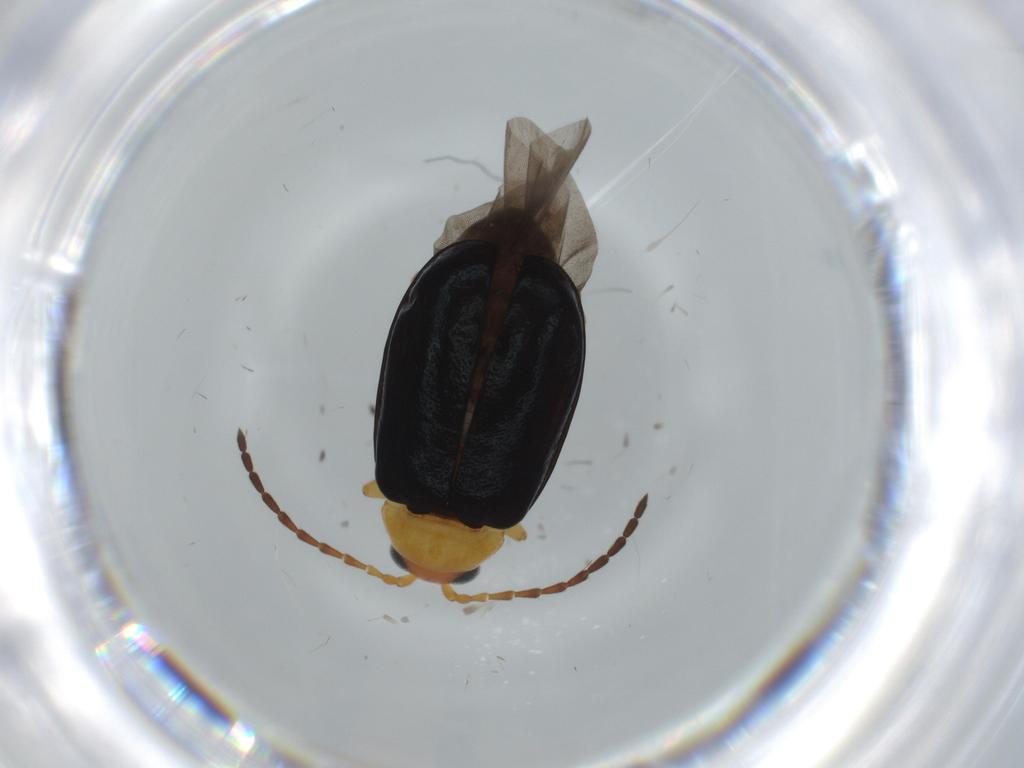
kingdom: Animalia
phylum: Arthropoda
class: Insecta
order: Coleoptera
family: Chrysomelidae
